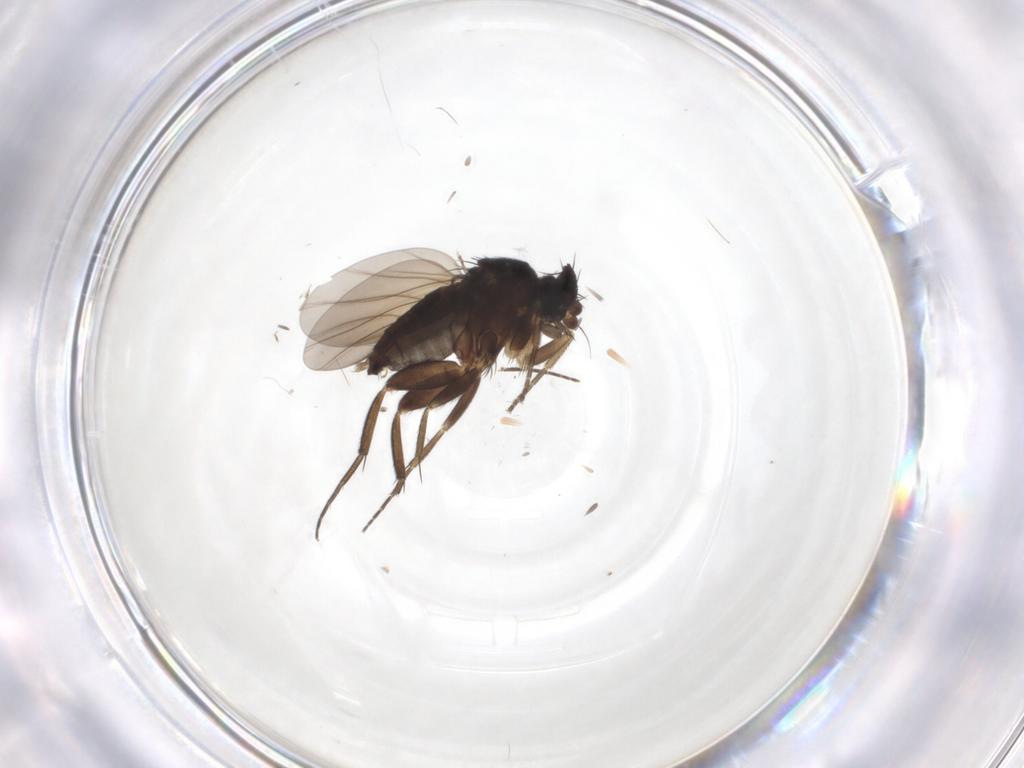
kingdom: Animalia
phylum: Arthropoda
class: Insecta
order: Diptera
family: Phoridae
